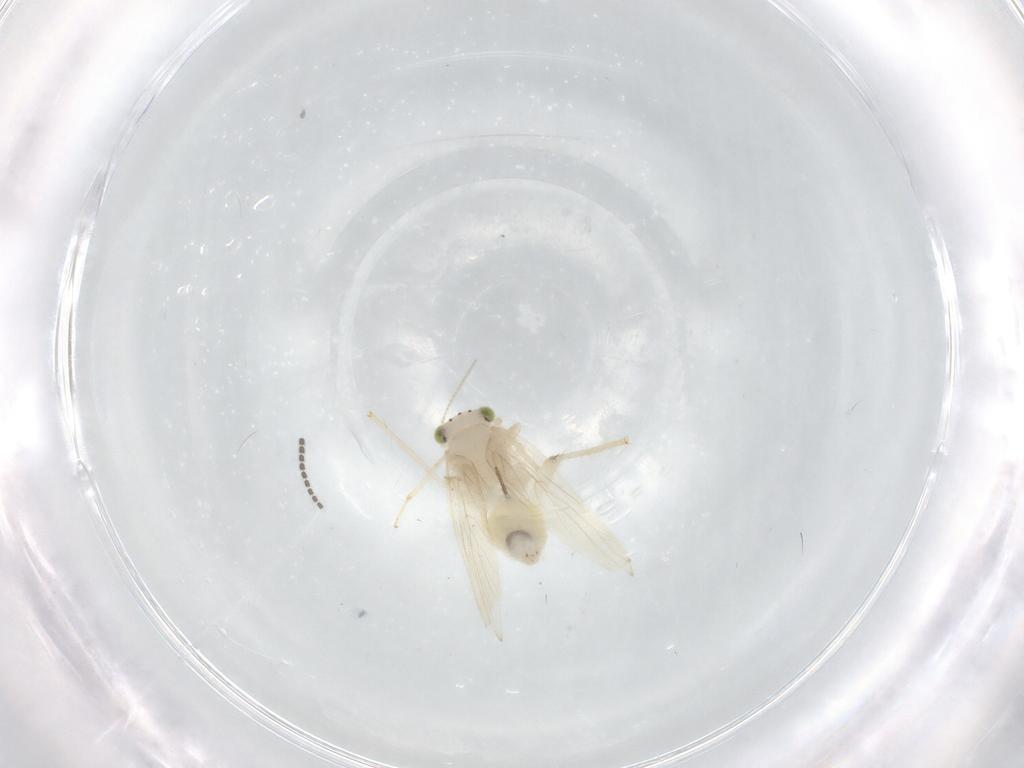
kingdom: Animalia
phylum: Arthropoda
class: Insecta
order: Psocodea
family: Lepidopsocidae
